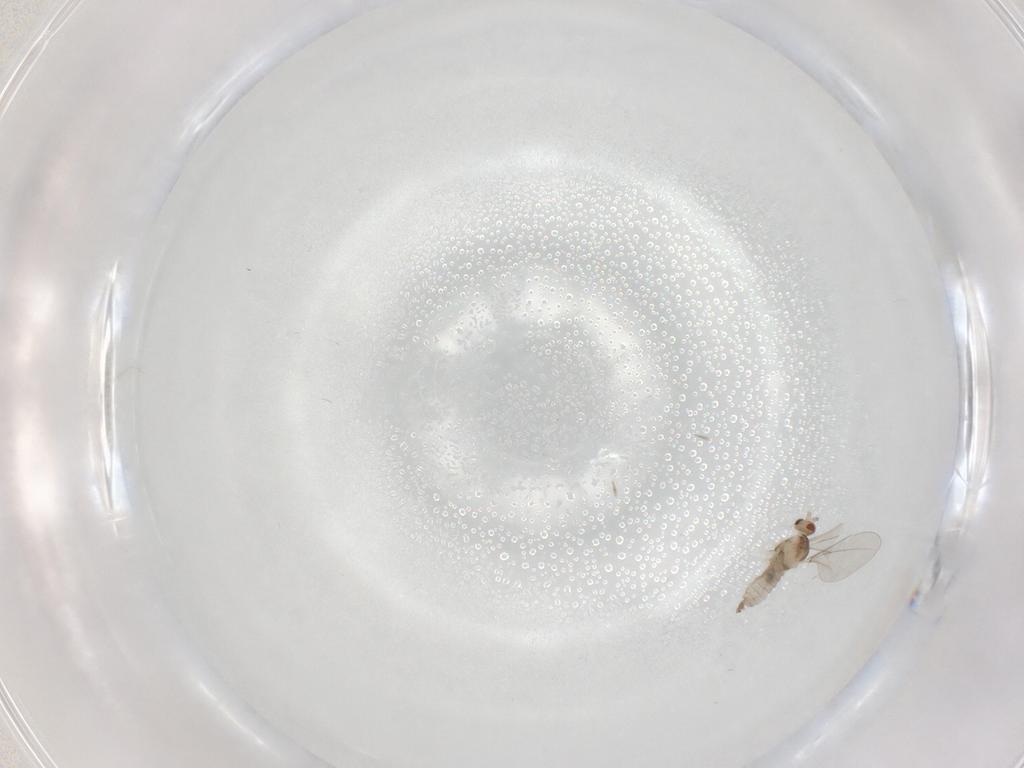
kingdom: Animalia
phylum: Arthropoda
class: Insecta
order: Diptera
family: Cecidomyiidae
